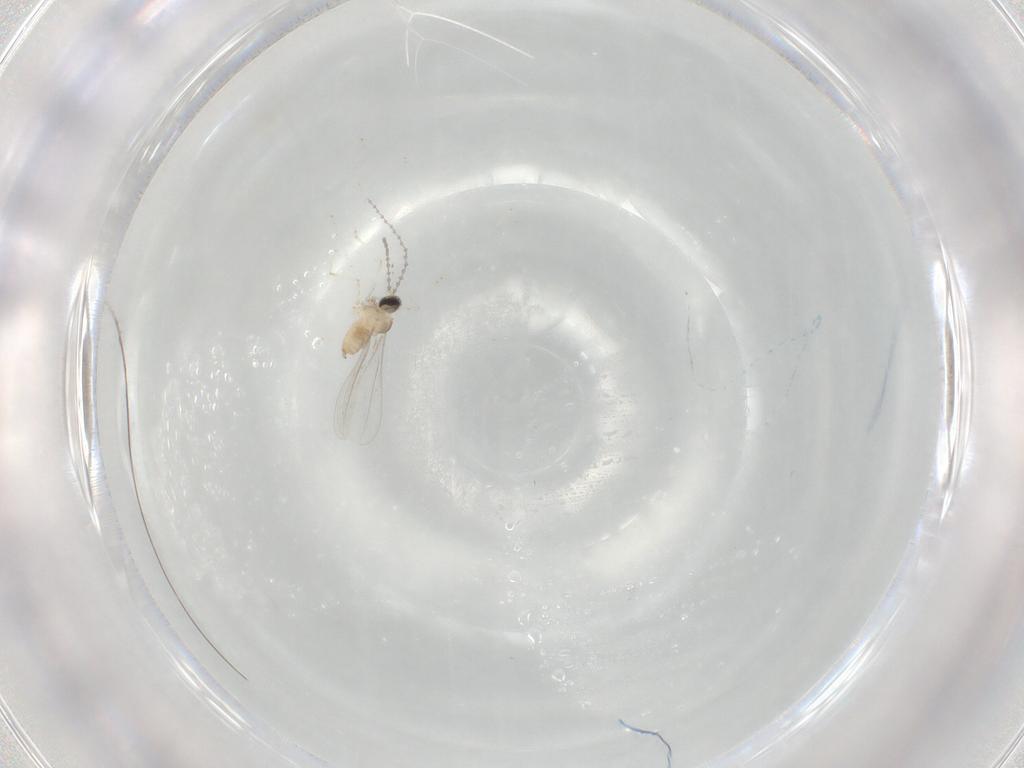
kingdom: Animalia
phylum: Arthropoda
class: Insecta
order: Diptera
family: Cecidomyiidae
